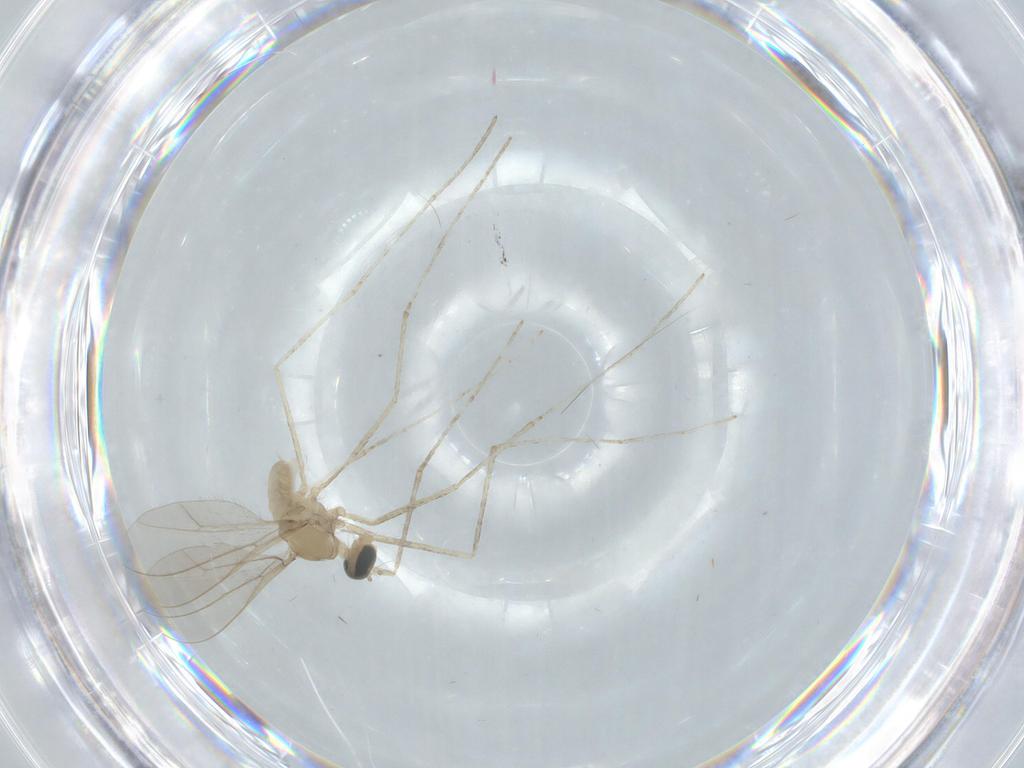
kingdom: Animalia
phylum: Arthropoda
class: Insecta
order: Diptera
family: Cecidomyiidae
